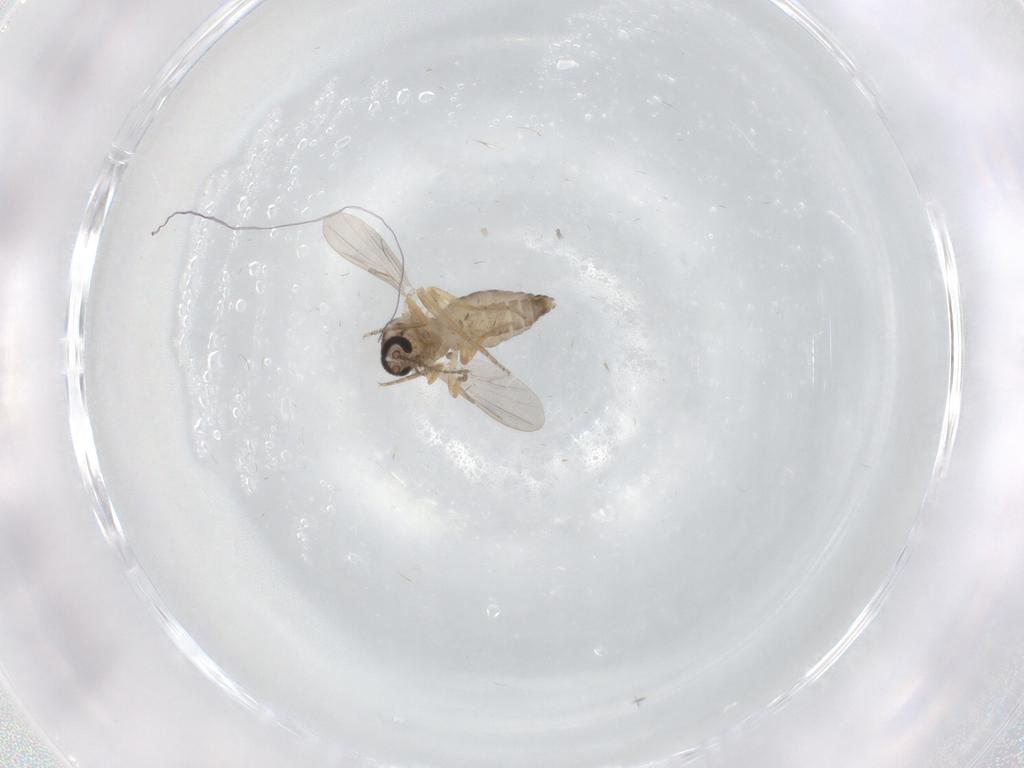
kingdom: Animalia
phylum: Arthropoda
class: Insecta
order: Diptera
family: Ceratopogonidae
